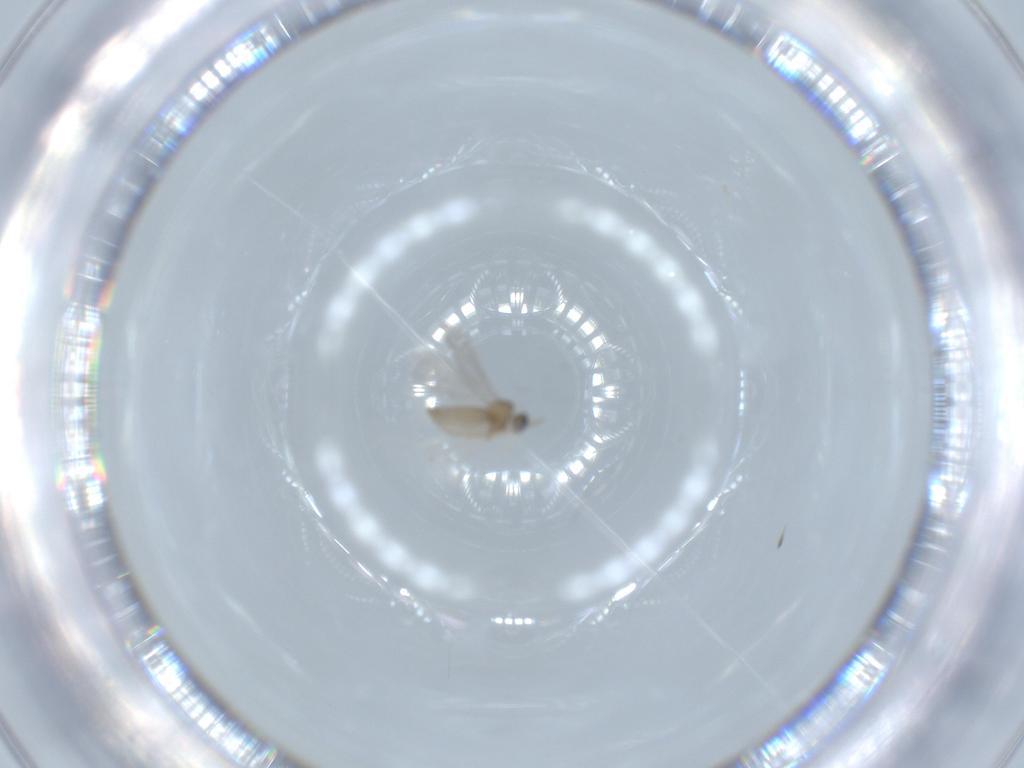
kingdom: Animalia
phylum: Arthropoda
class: Insecta
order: Diptera
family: Cecidomyiidae
